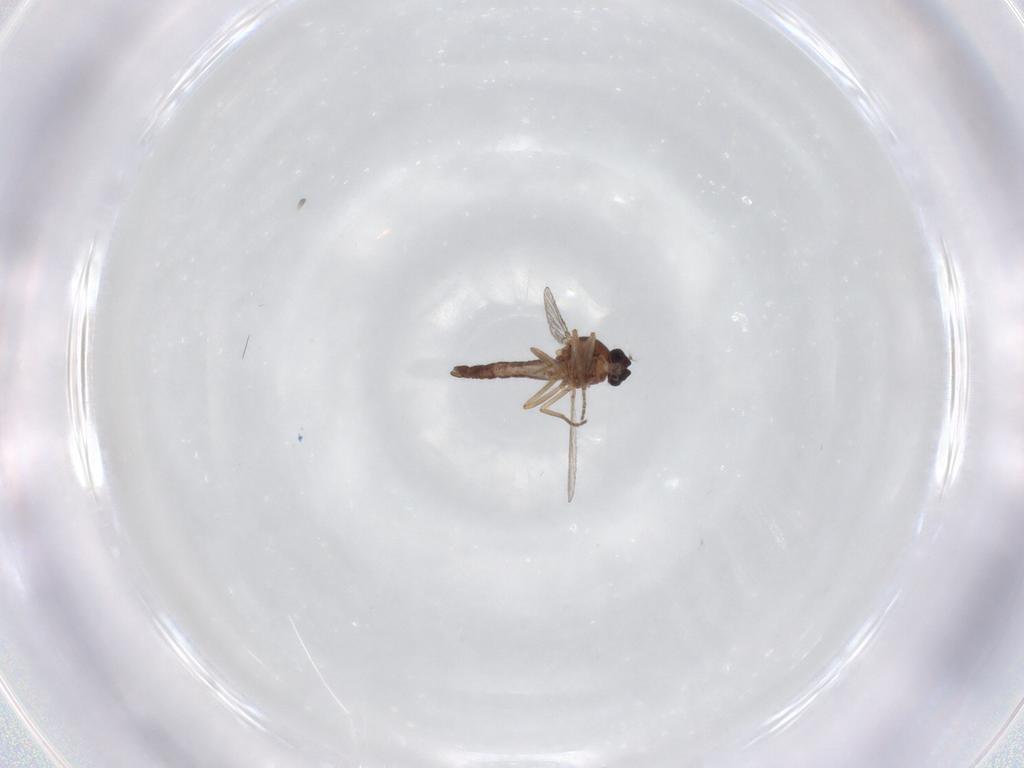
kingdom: Animalia
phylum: Arthropoda
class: Insecta
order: Diptera
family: Ceratopogonidae
